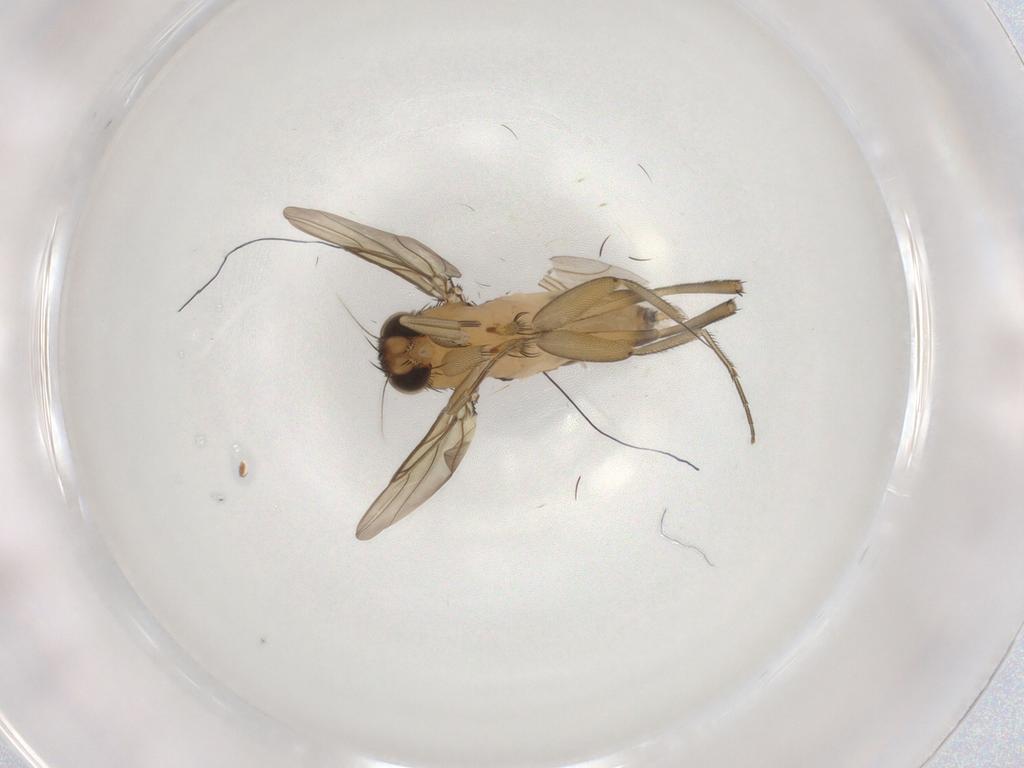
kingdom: Animalia
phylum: Arthropoda
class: Insecta
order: Diptera
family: Phoridae
